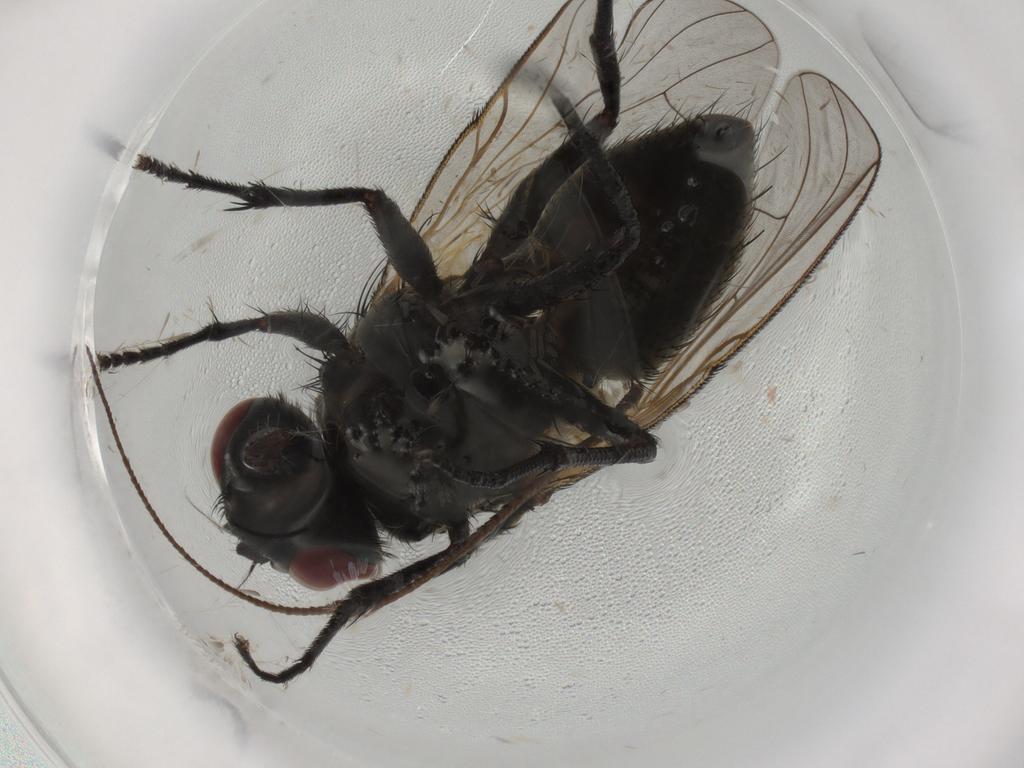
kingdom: Animalia
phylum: Arthropoda
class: Insecta
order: Diptera
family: Muscidae
